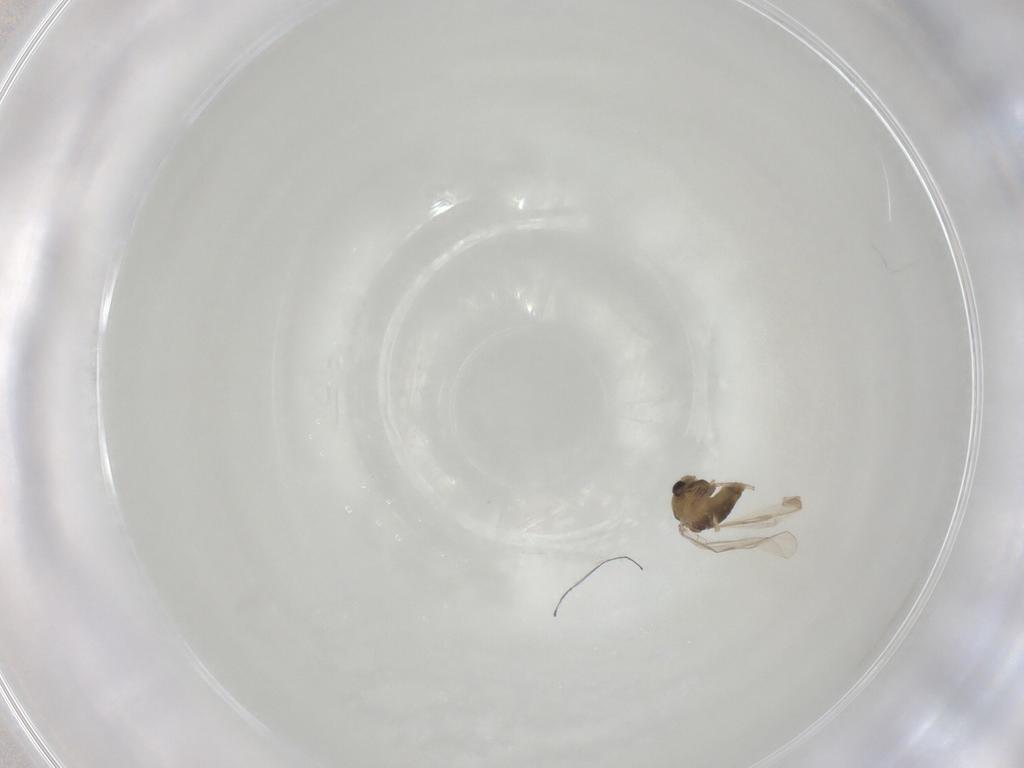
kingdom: Animalia
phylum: Arthropoda
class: Insecta
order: Diptera
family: Chironomidae
